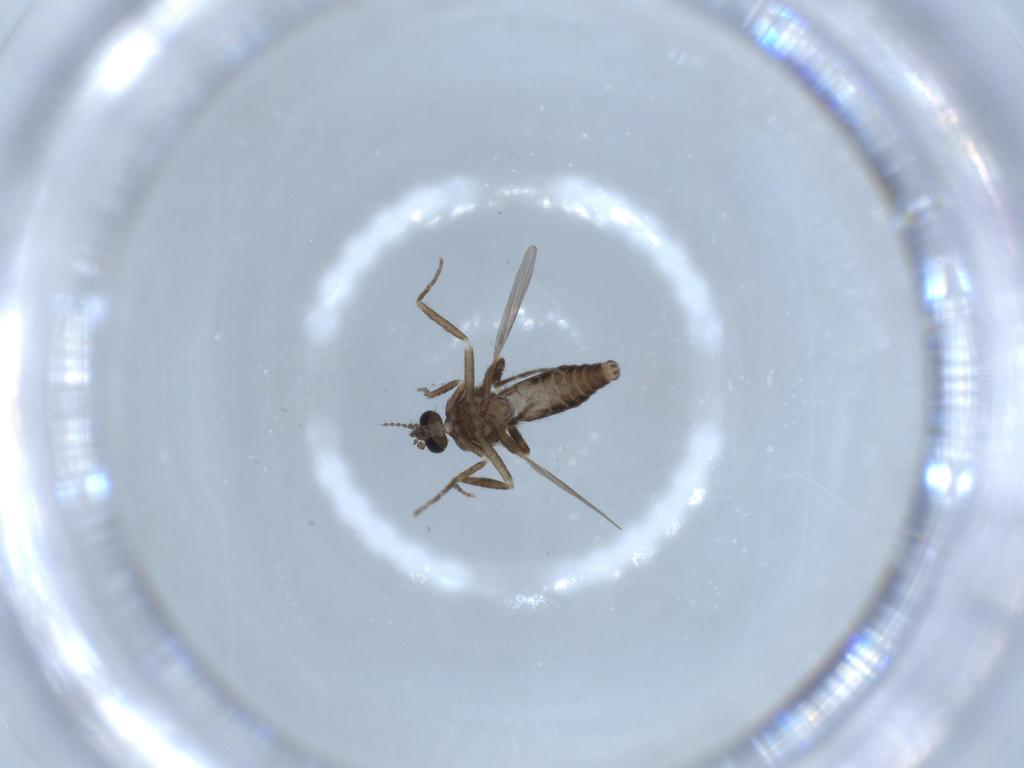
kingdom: Animalia
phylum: Arthropoda
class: Insecta
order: Diptera
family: Ceratopogonidae
